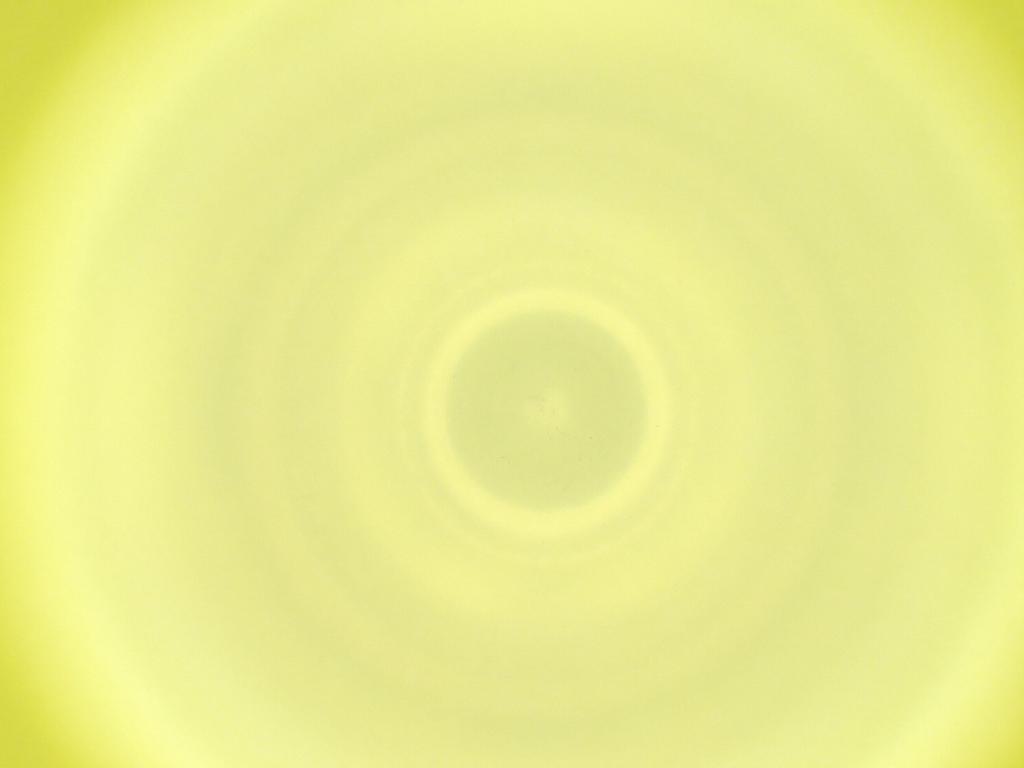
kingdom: Animalia
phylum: Arthropoda
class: Insecta
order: Diptera
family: Cecidomyiidae
